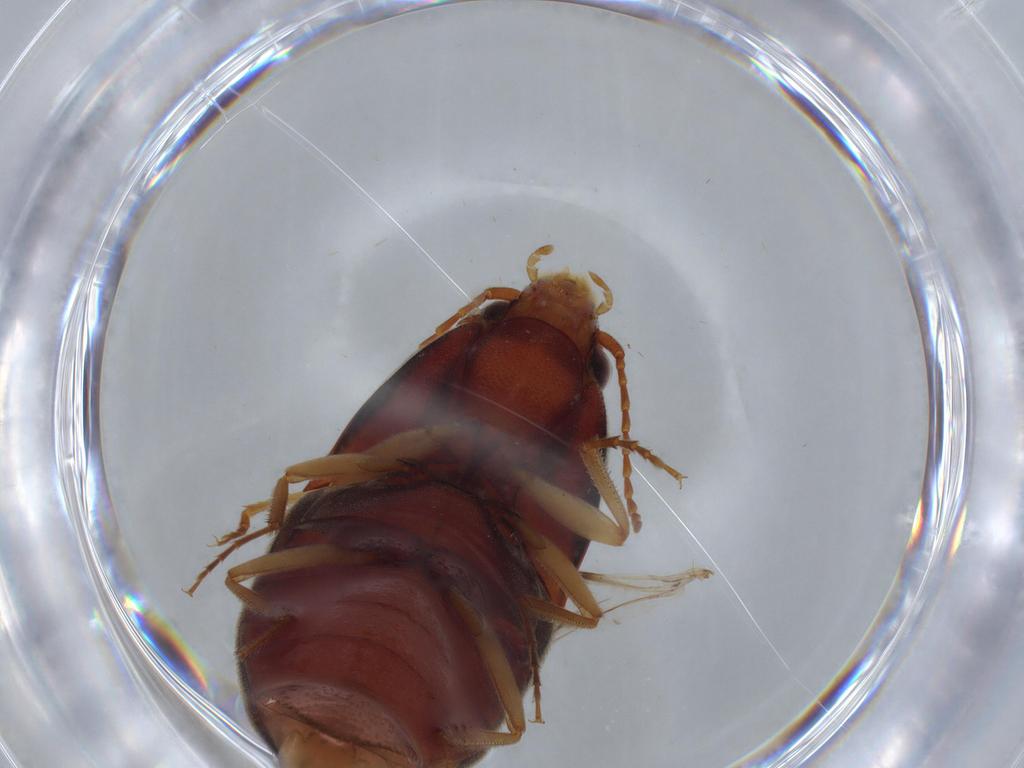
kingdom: Animalia
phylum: Arthropoda
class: Insecta
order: Coleoptera
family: Elateridae
